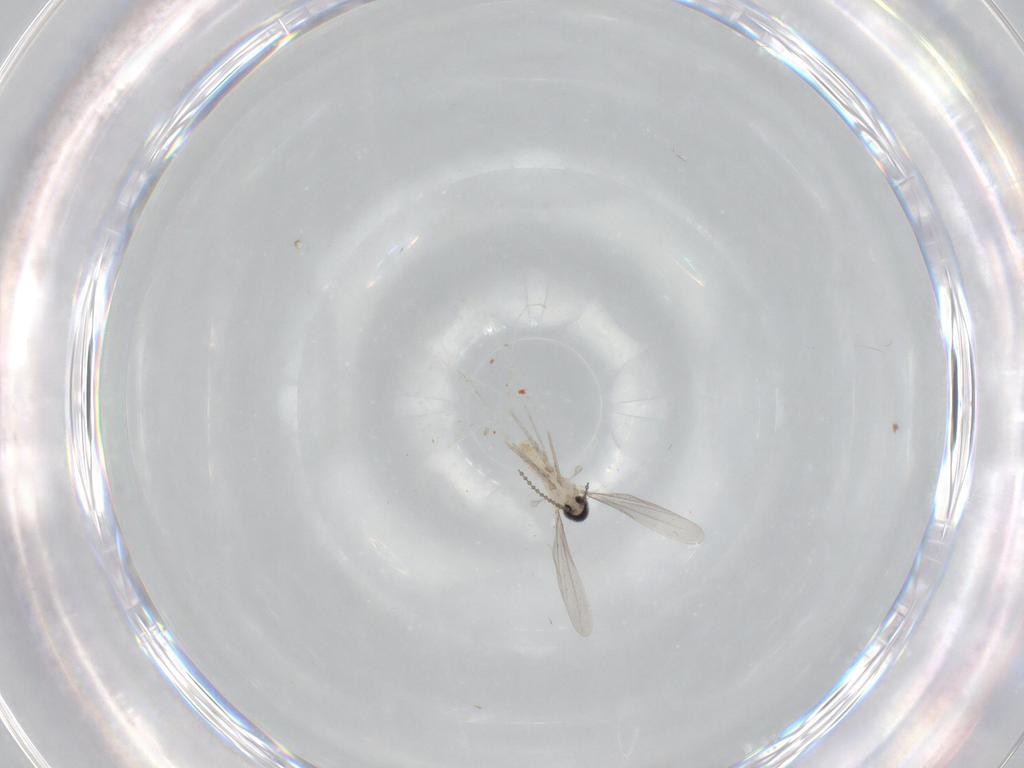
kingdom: Animalia
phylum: Arthropoda
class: Insecta
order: Diptera
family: Cecidomyiidae
